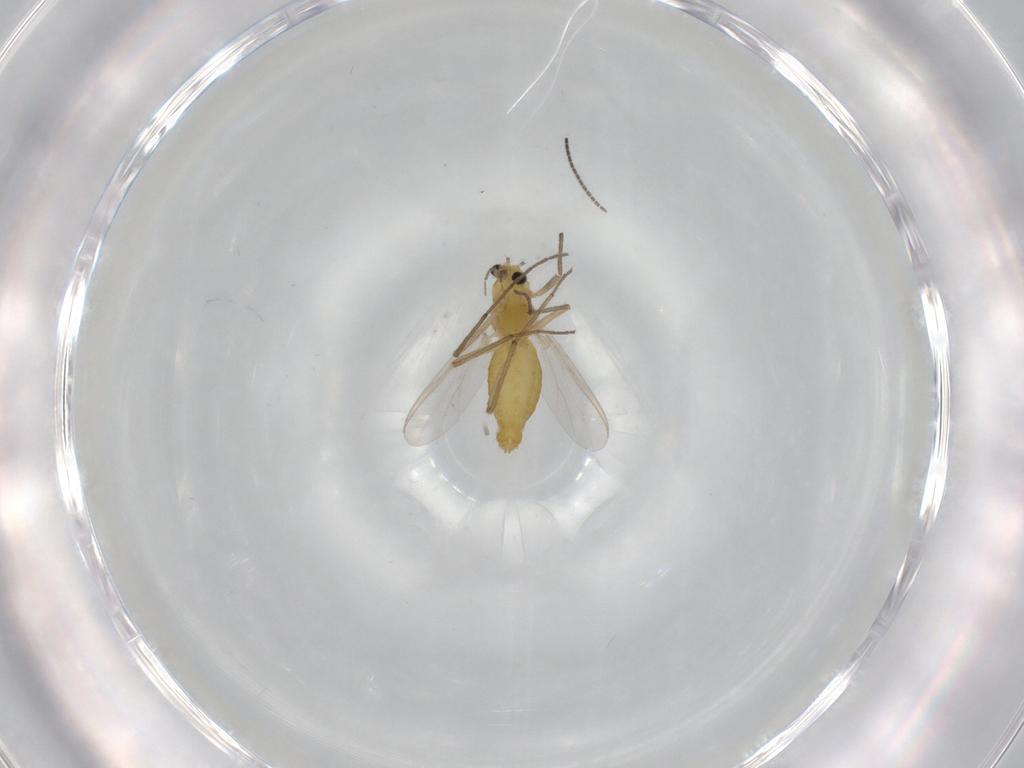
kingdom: Animalia
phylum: Arthropoda
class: Insecta
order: Diptera
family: Chironomidae
